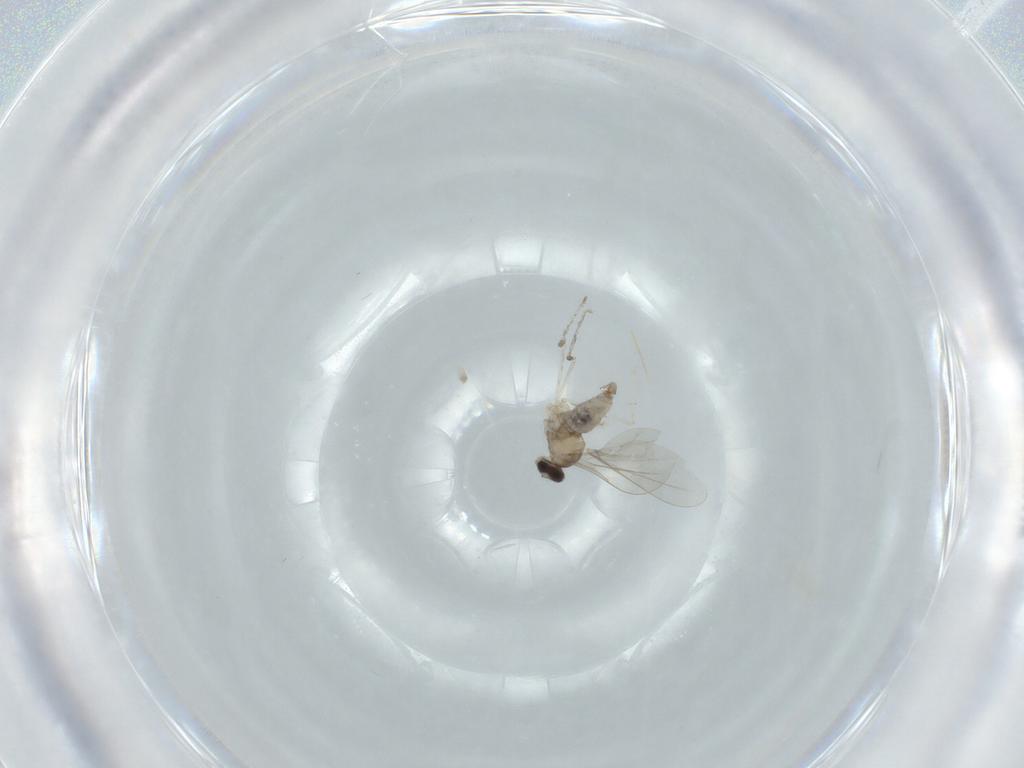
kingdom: Animalia
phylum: Arthropoda
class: Insecta
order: Diptera
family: Cecidomyiidae
